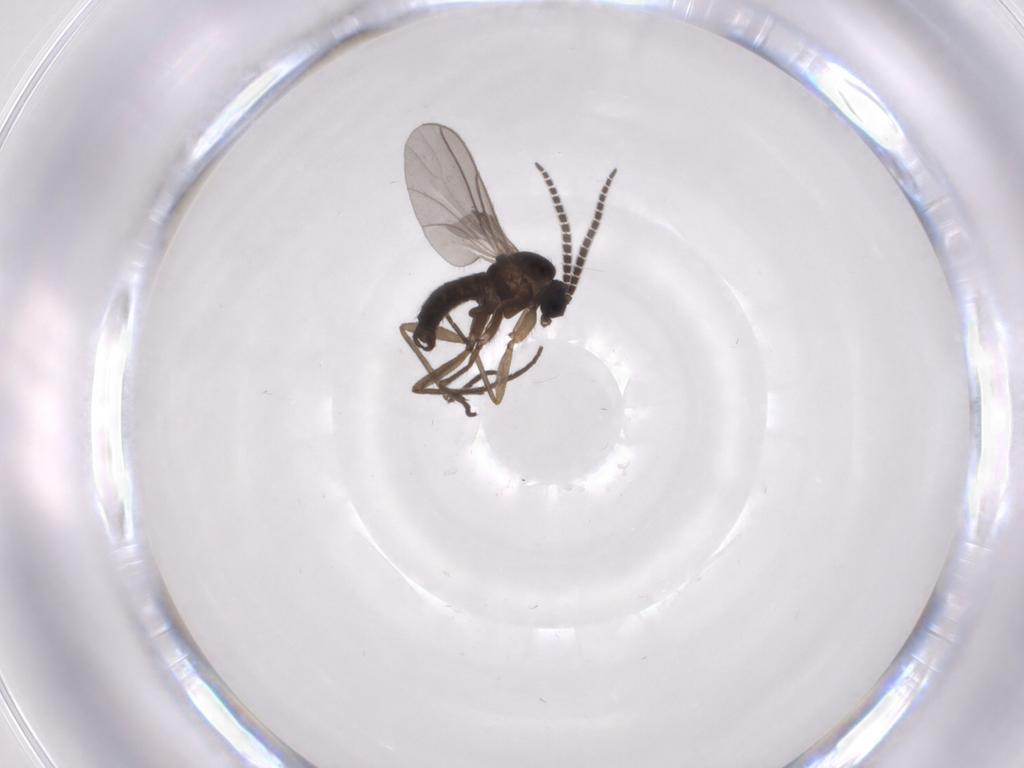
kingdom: Animalia
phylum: Arthropoda
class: Insecta
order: Diptera
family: Sciaridae
